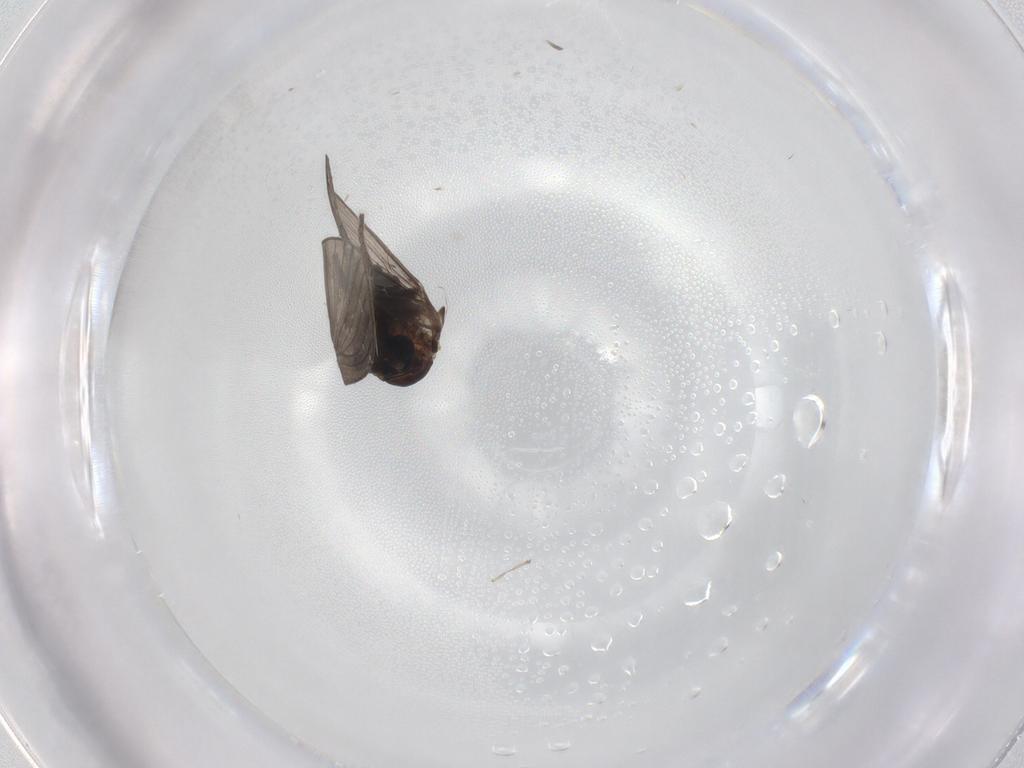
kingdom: Animalia
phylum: Arthropoda
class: Insecta
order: Diptera
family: Psychodidae
